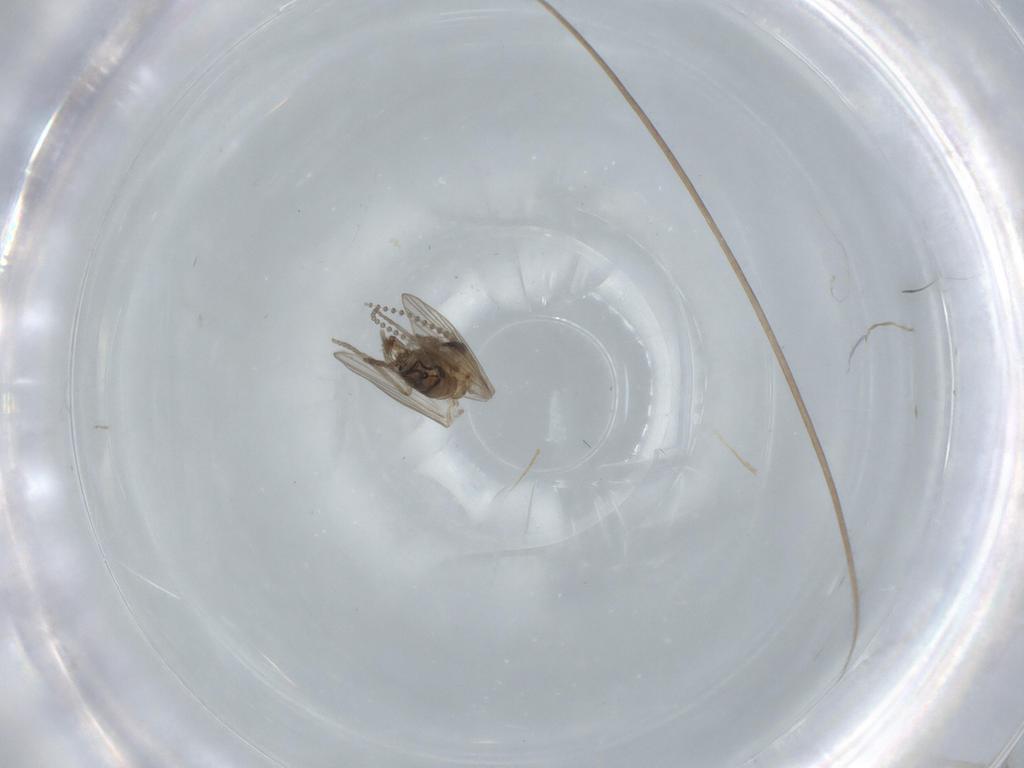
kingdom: Animalia
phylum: Arthropoda
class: Insecta
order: Diptera
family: Psychodidae
